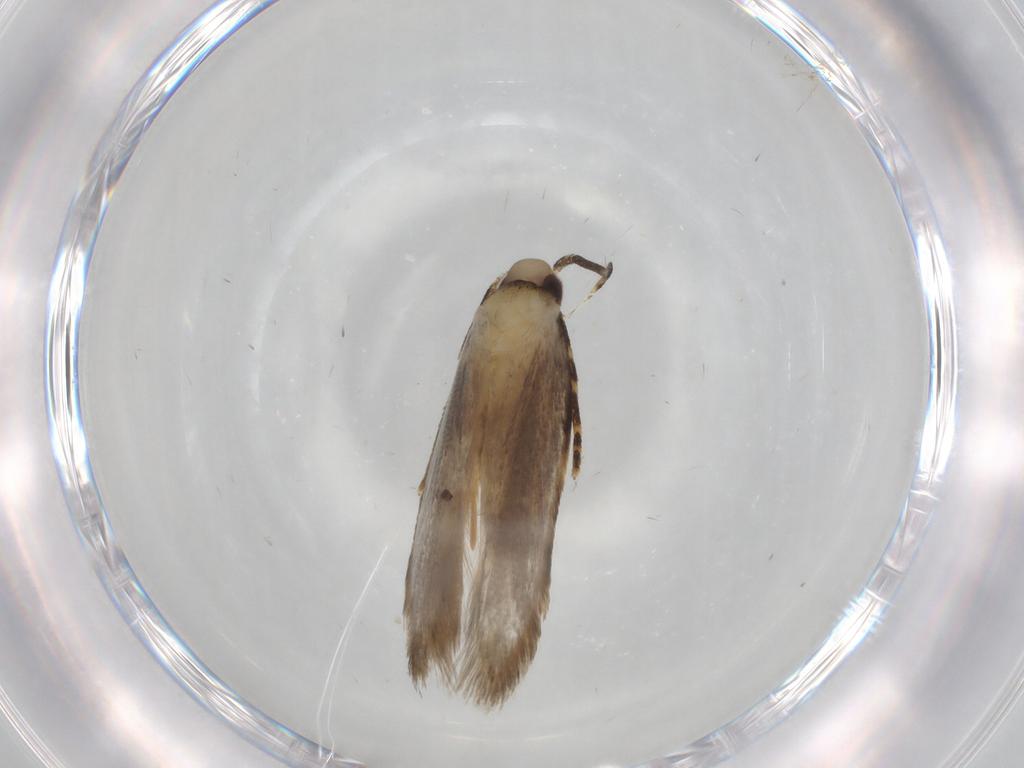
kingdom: Animalia
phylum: Arthropoda
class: Insecta
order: Lepidoptera
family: Autostichidae
